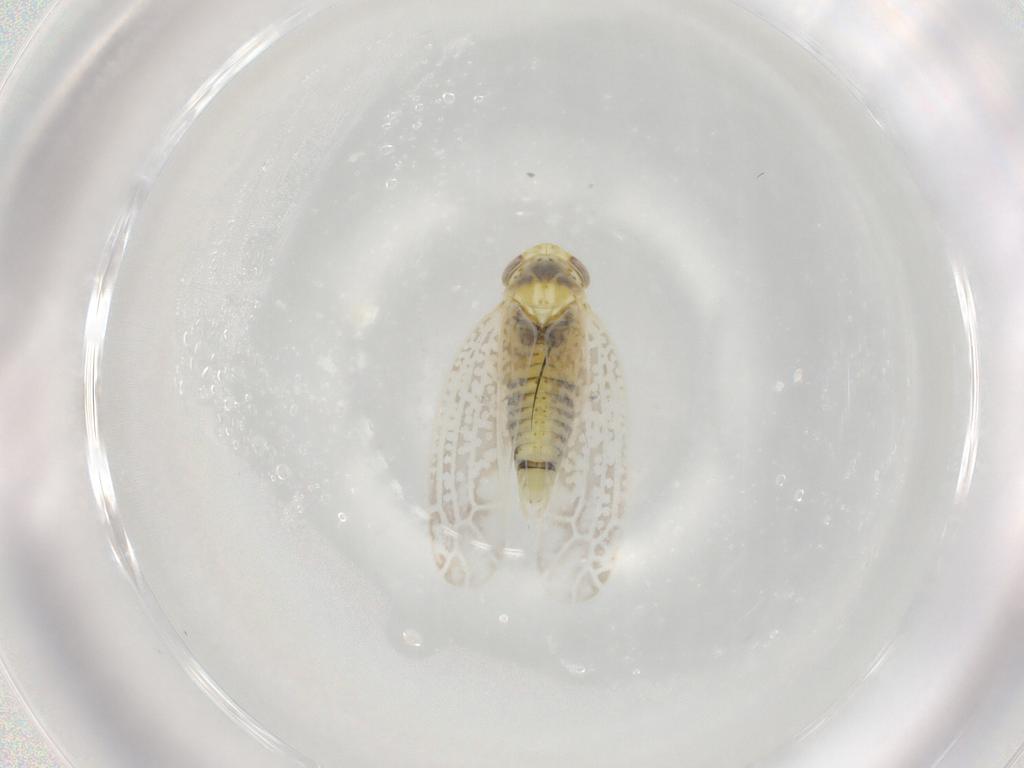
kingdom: Animalia
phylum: Arthropoda
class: Insecta
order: Hemiptera
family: Cicadellidae
